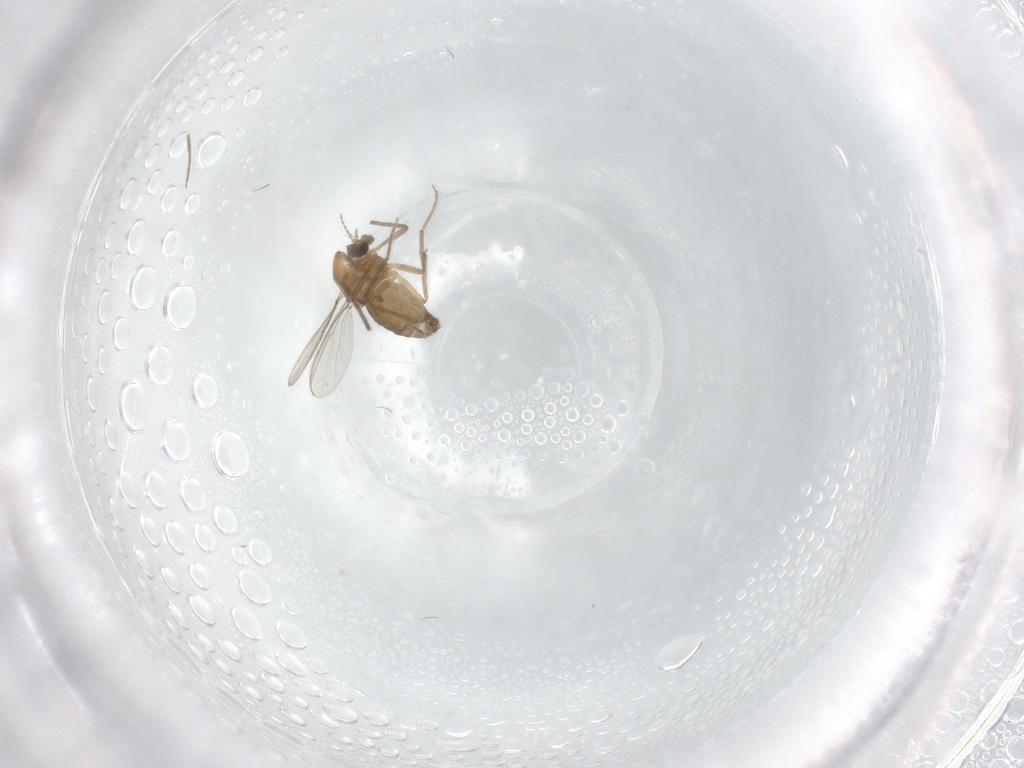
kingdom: Animalia
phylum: Arthropoda
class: Insecta
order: Diptera
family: Chironomidae
